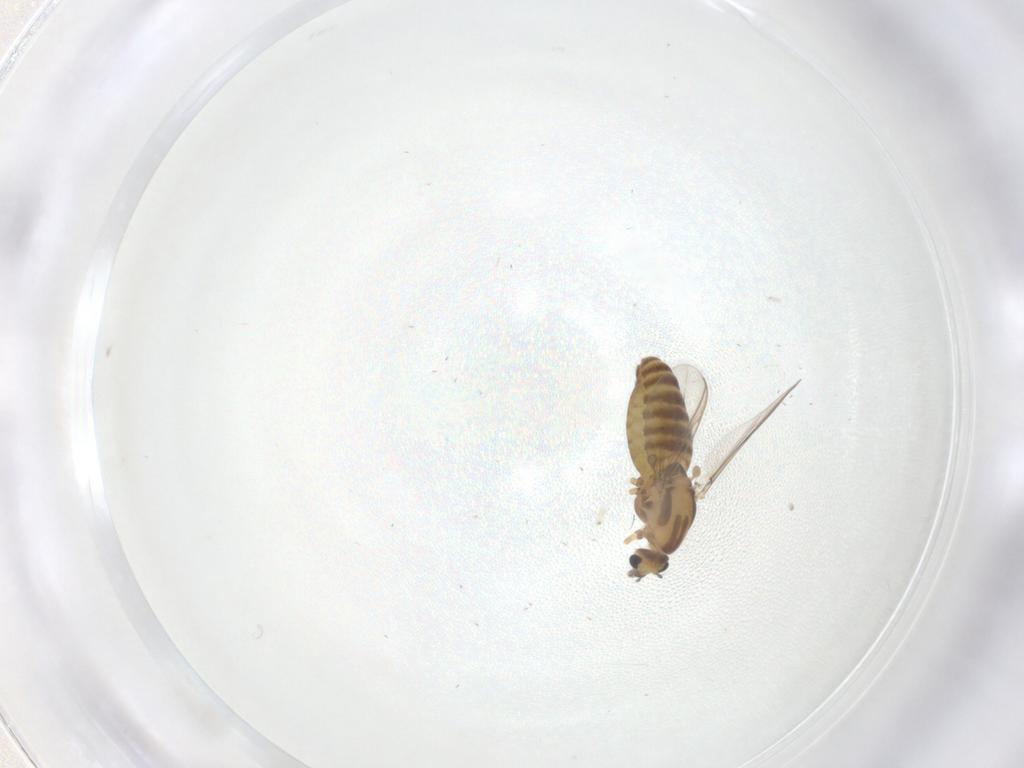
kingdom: Animalia
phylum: Arthropoda
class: Insecta
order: Diptera
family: Chironomidae
